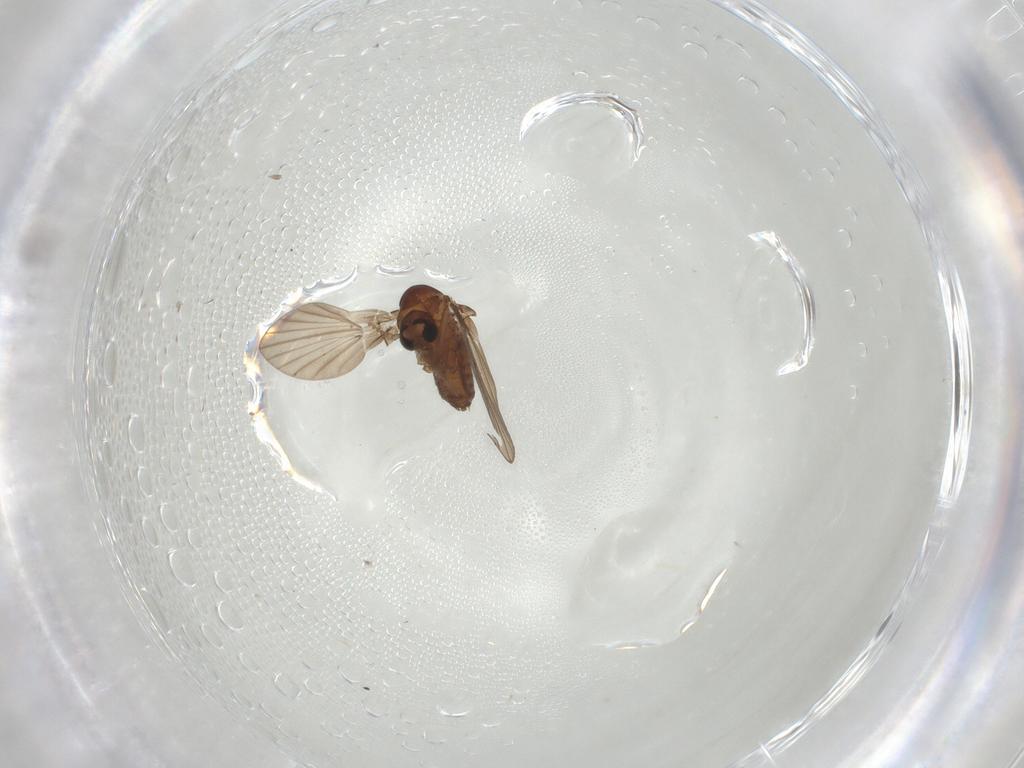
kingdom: Animalia
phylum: Arthropoda
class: Insecta
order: Diptera
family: Psychodidae
